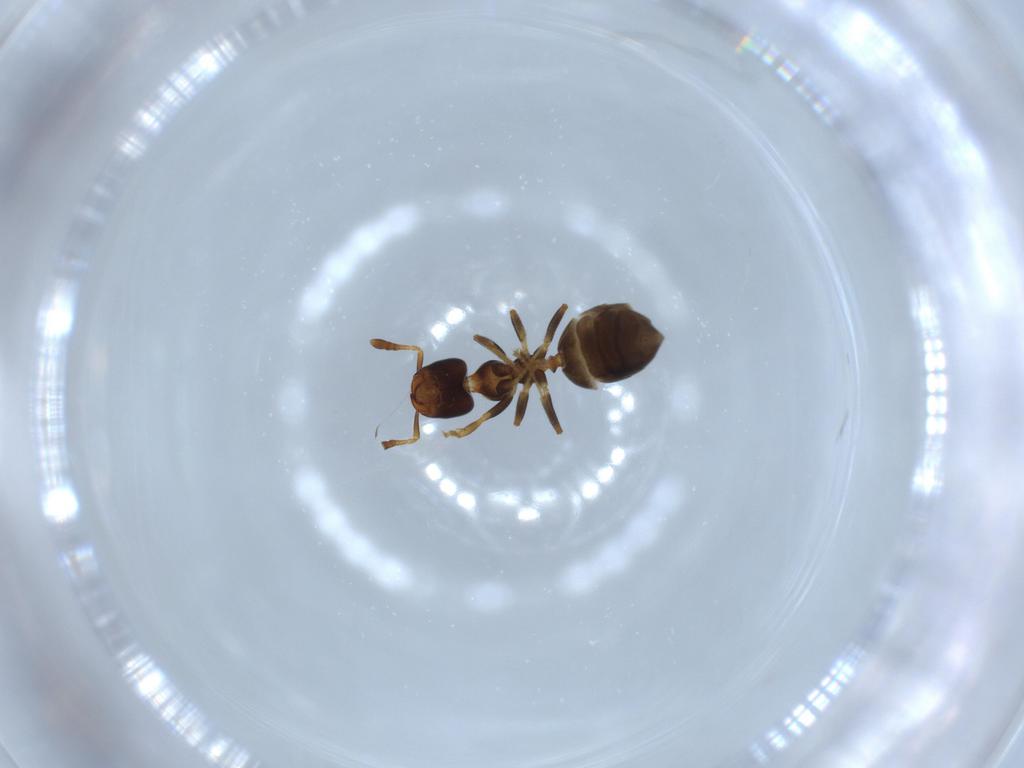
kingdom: Animalia
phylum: Arthropoda
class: Insecta
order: Hymenoptera
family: Formicidae
